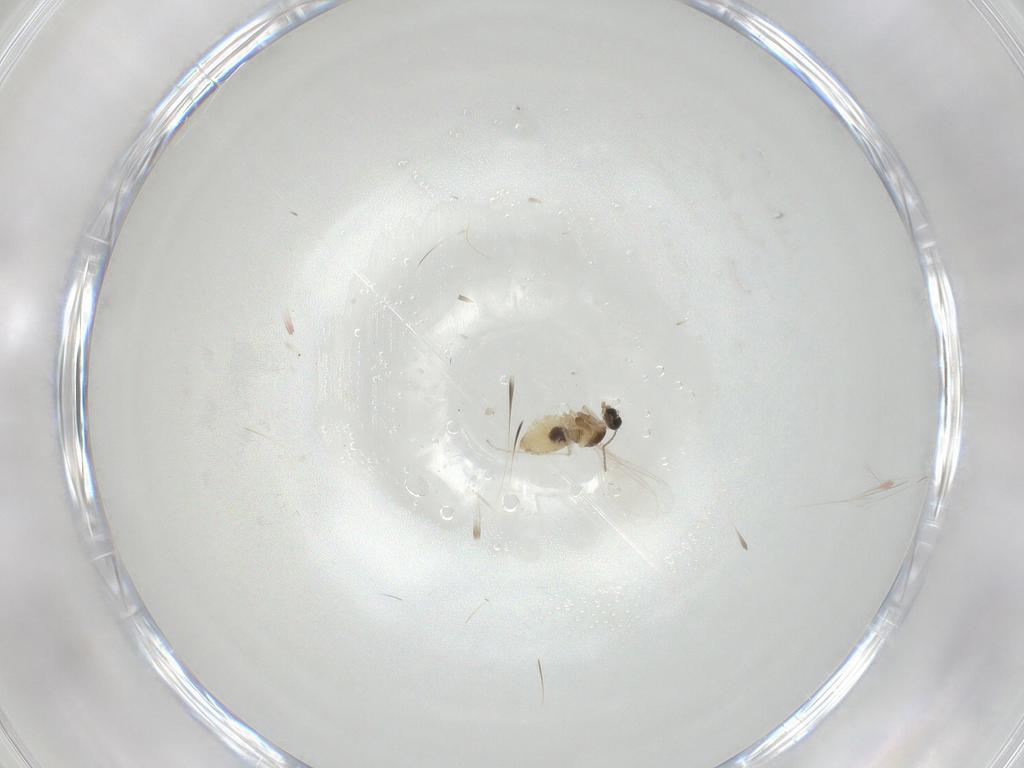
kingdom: Animalia
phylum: Arthropoda
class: Insecta
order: Diptera
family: Cecidomyiidae
